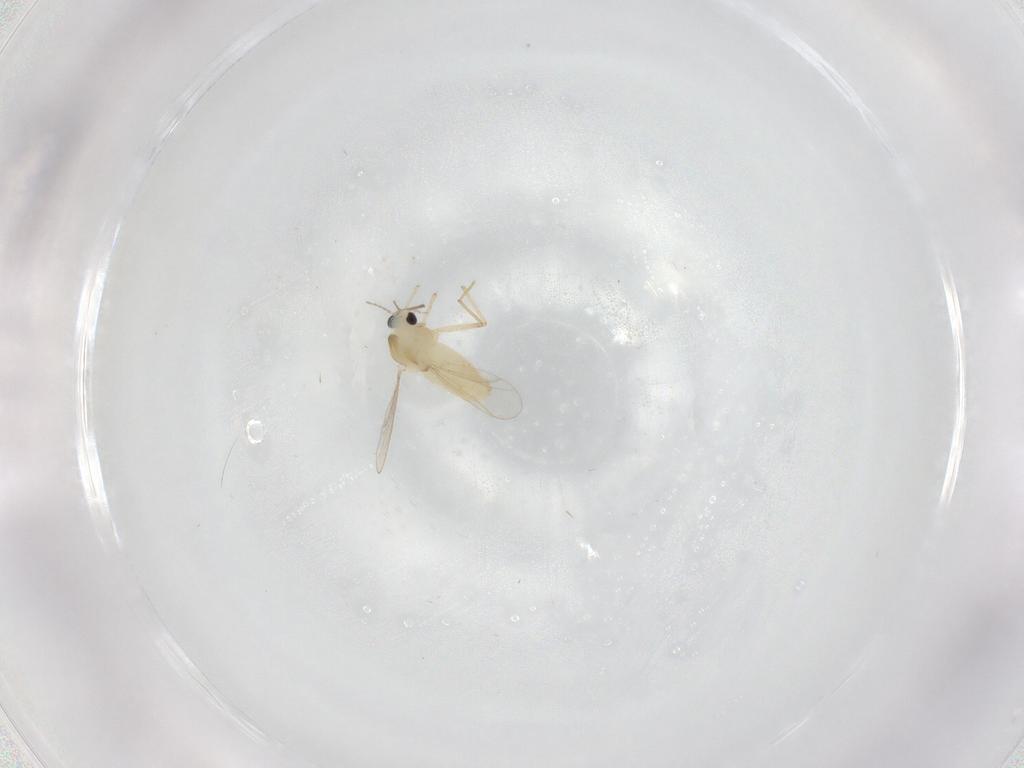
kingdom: Animalia
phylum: Arthropoda
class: Insecta
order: Diptera
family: Chironomidae
